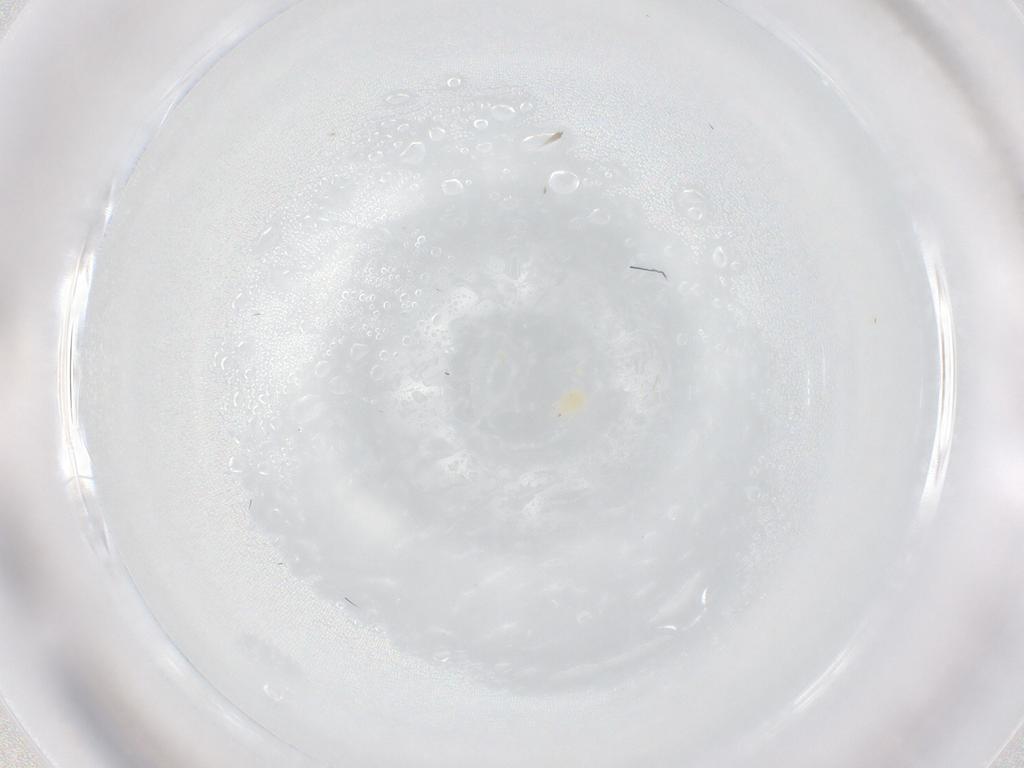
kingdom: Animalia
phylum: Arthropoda
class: Arachnida
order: Trombidiformes
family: Tetranychidae
